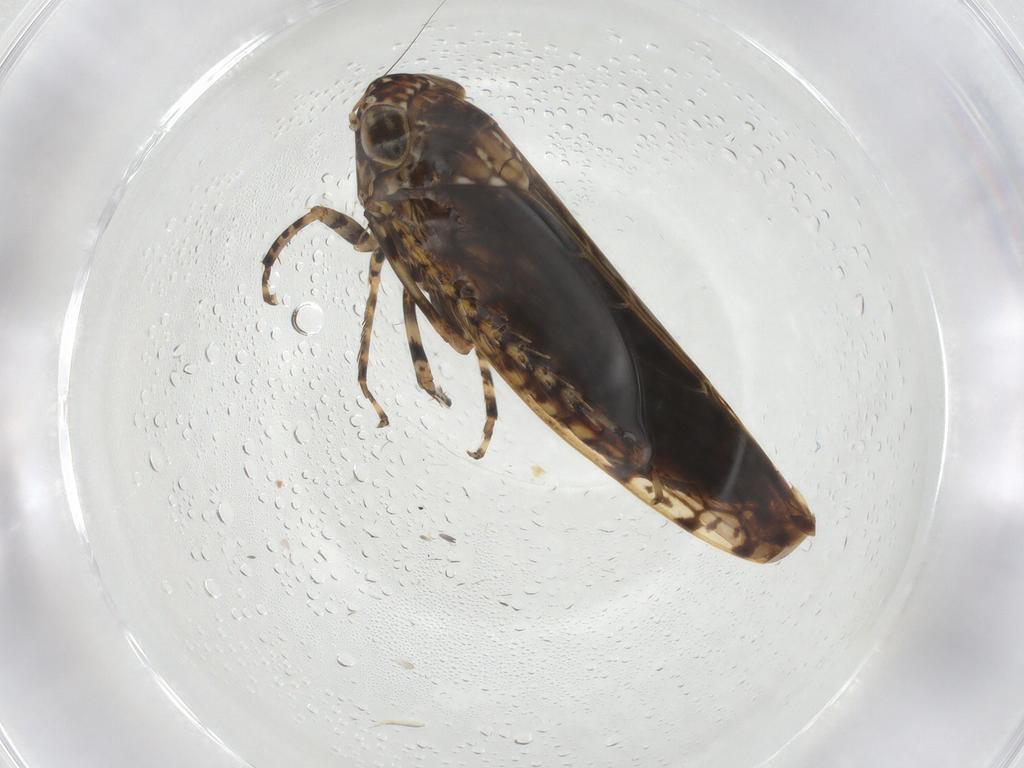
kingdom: Animalia
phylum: Arthropoda
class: Insecta
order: Hemiptera
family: Cicadellidae
